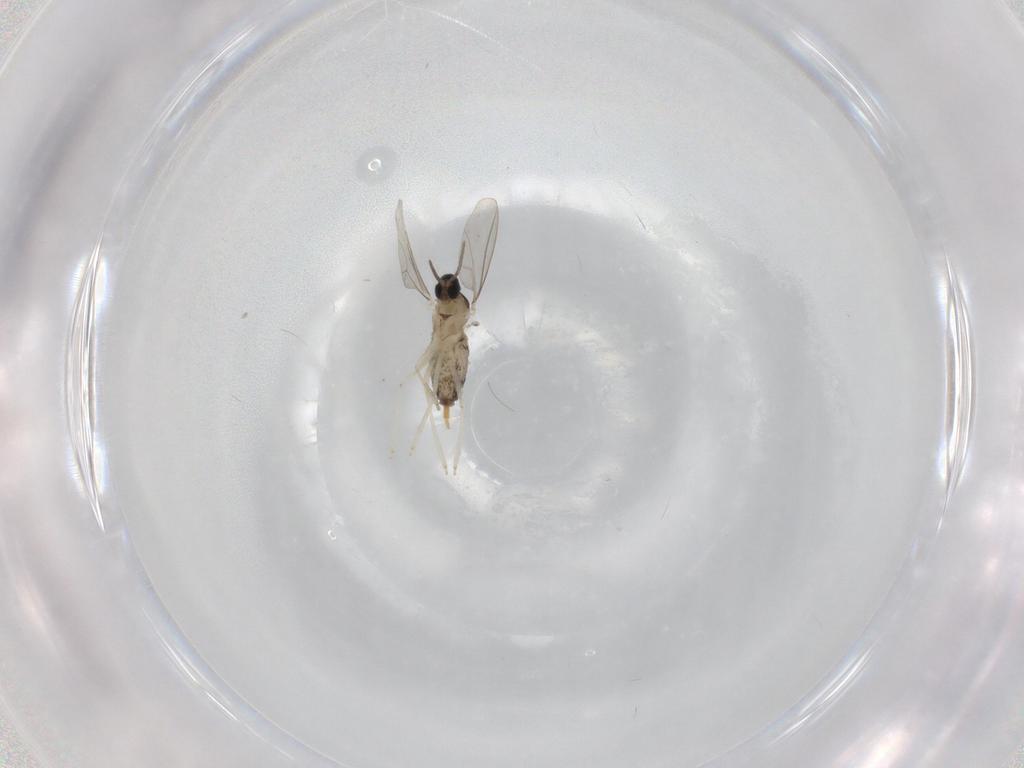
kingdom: Animalia
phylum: Arthropoda
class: Insecta
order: Diptera
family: Cecidomyiidae
